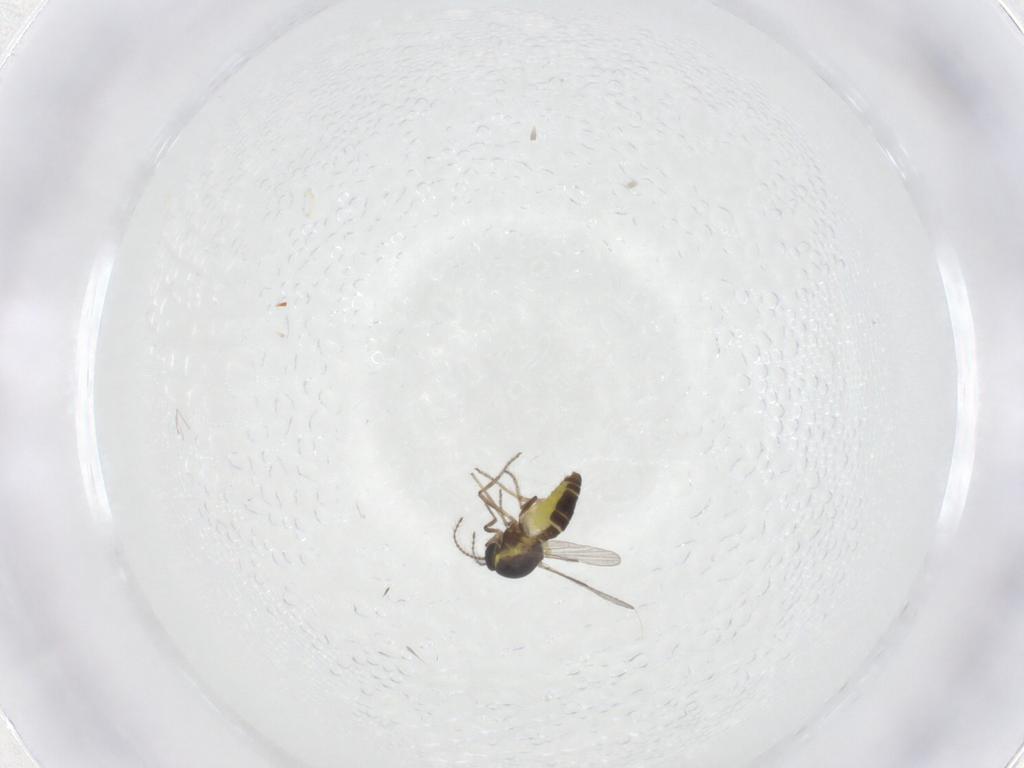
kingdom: Animalia
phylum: Arthropoda
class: Insecta
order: Diptera
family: Ceratopogonidae
